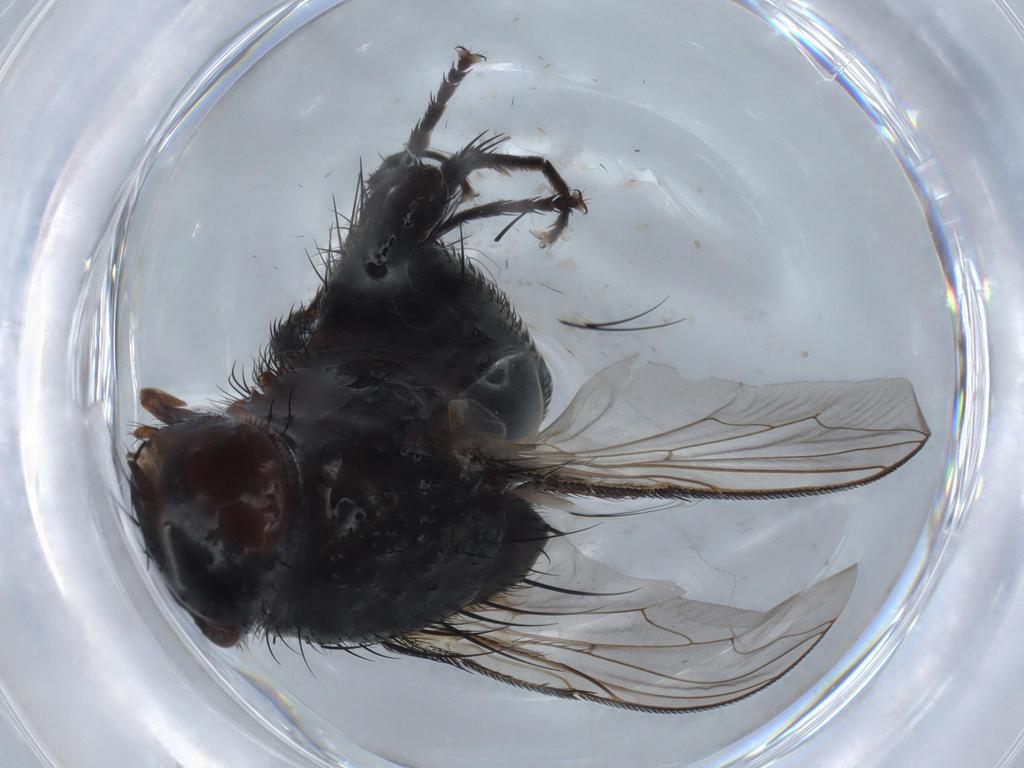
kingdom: Animalia
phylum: Arthropoda
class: Insecta
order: Diptera
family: Sarcophagidae
